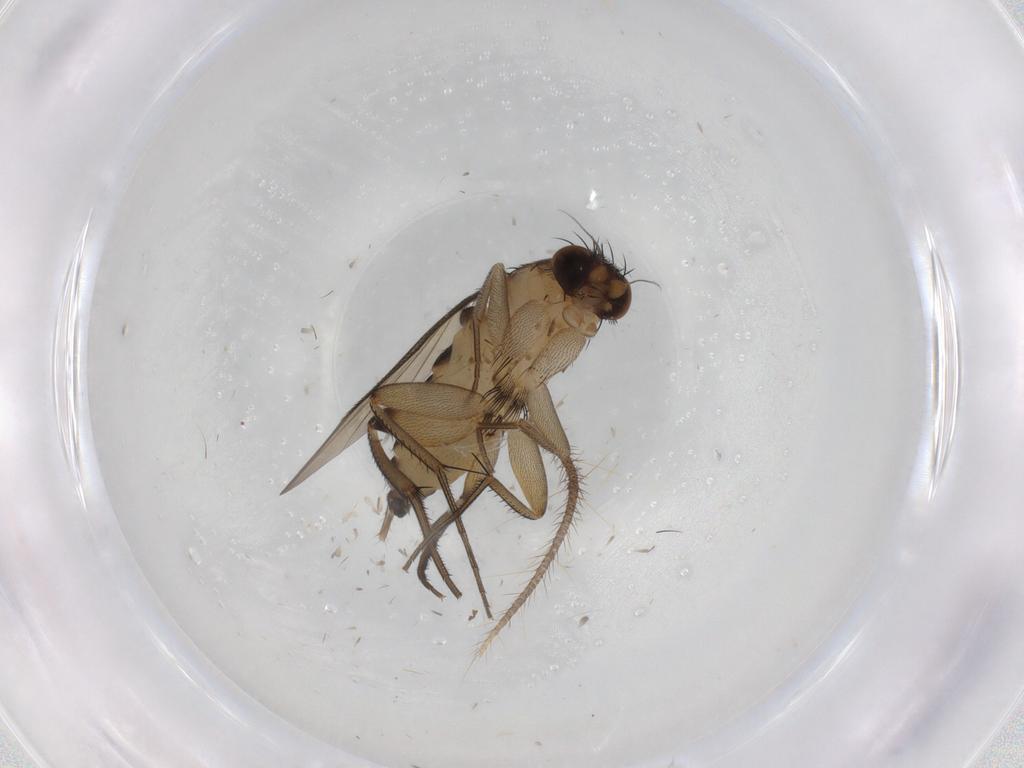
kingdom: Animalia
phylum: Arthropoda
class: Insecta
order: Diptera
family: Phoridae
